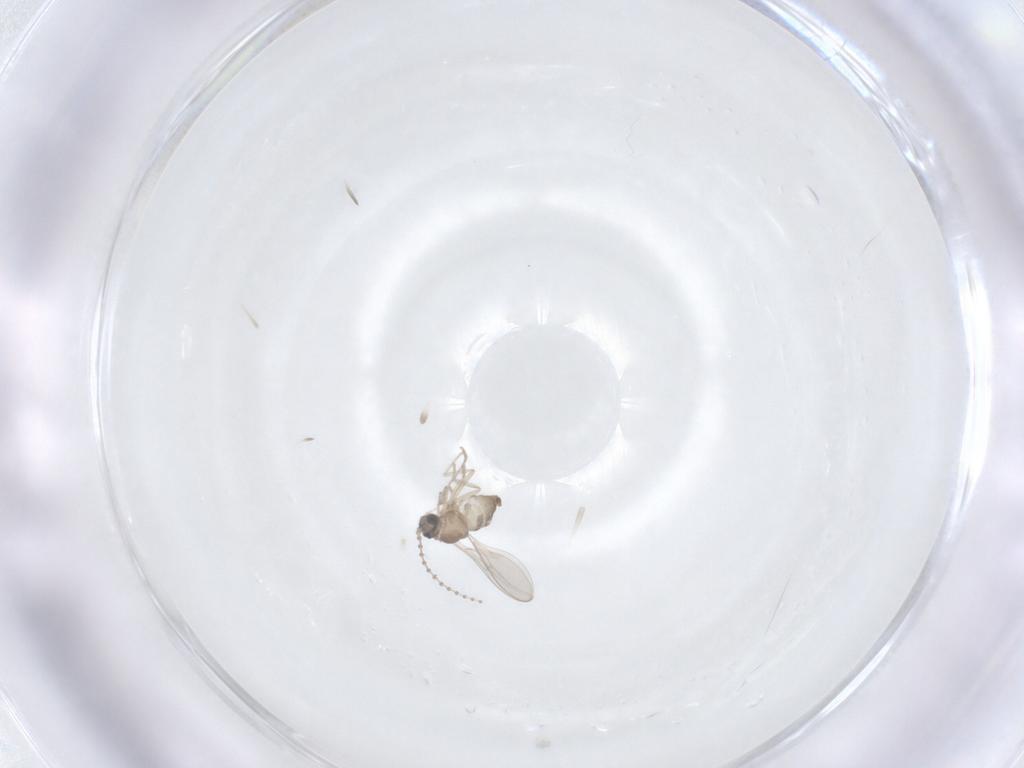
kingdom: Animalia
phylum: Arthropoda
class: Insecta
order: Diptera
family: Cecidomyiidae
